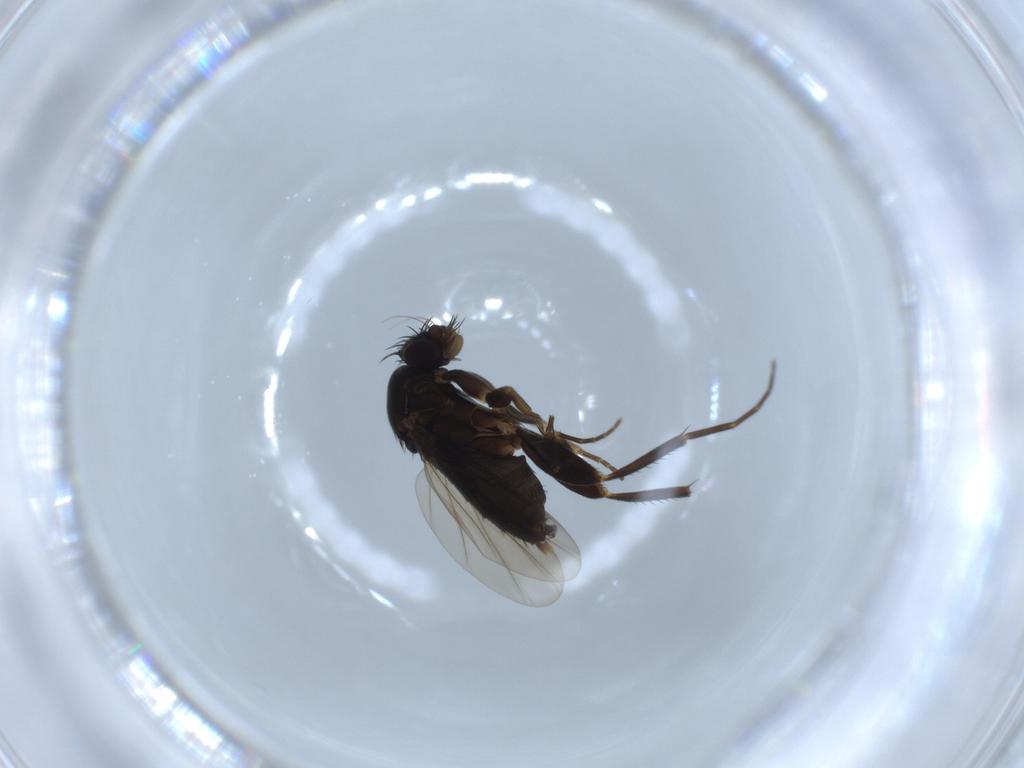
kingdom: Animalia
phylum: Arthropoda
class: Insecta
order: Diptera
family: Phoridae
